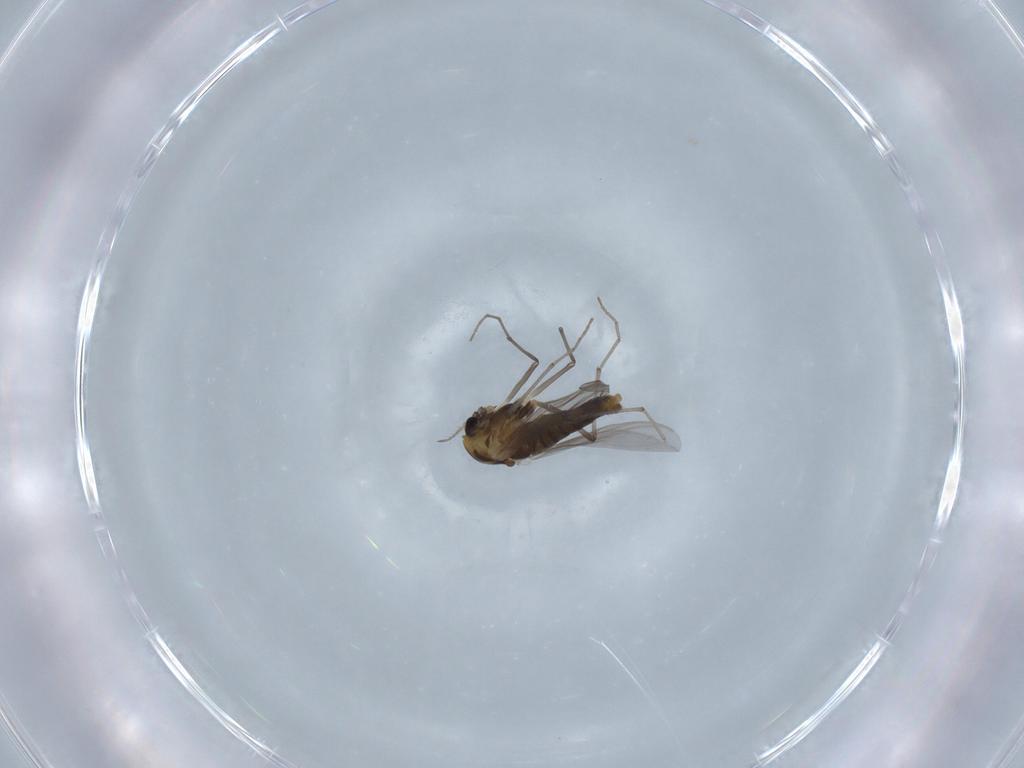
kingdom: Animalia
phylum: Arthropoda
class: Insecta
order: Diptera
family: Chironomidae
